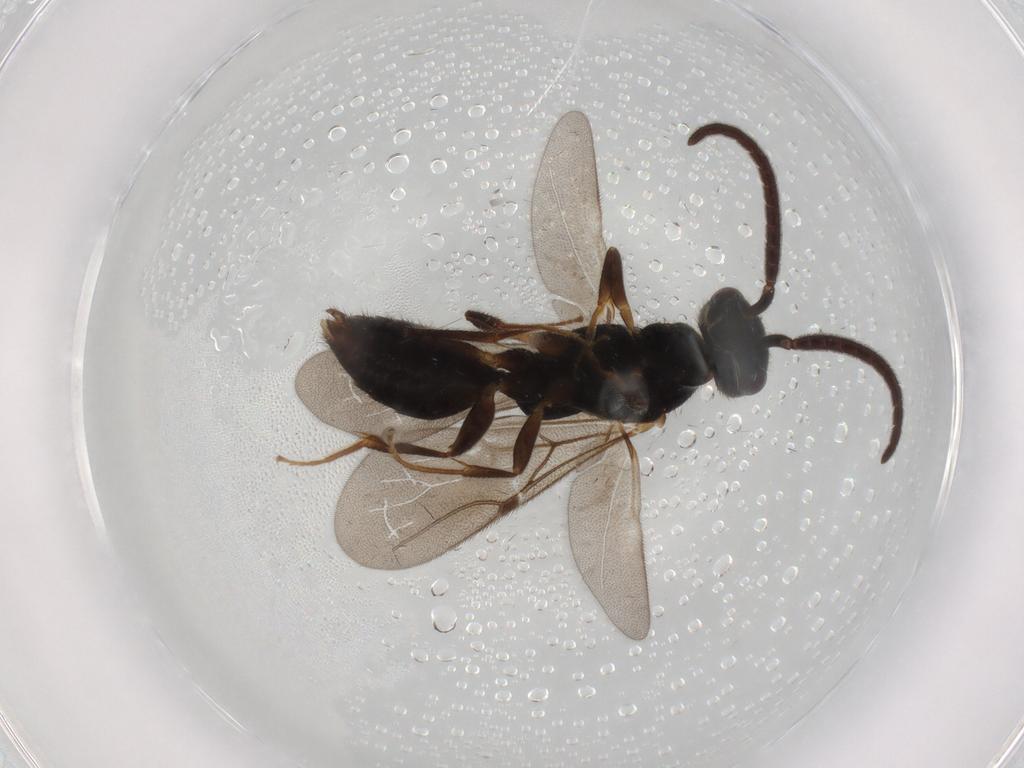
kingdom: Animalia
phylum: Arthropoda
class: Insecta
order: Hymenoptera
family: Bethylidae
